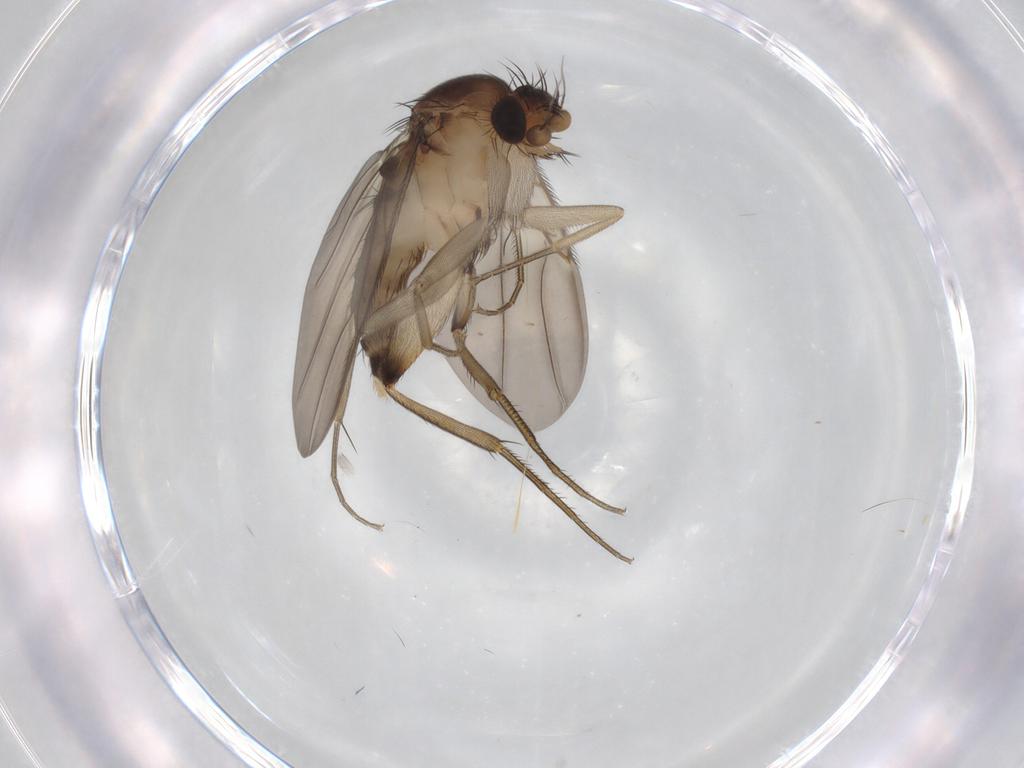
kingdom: Animalia
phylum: Arthropoda
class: Insecta
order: Diptera
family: Phoridae
